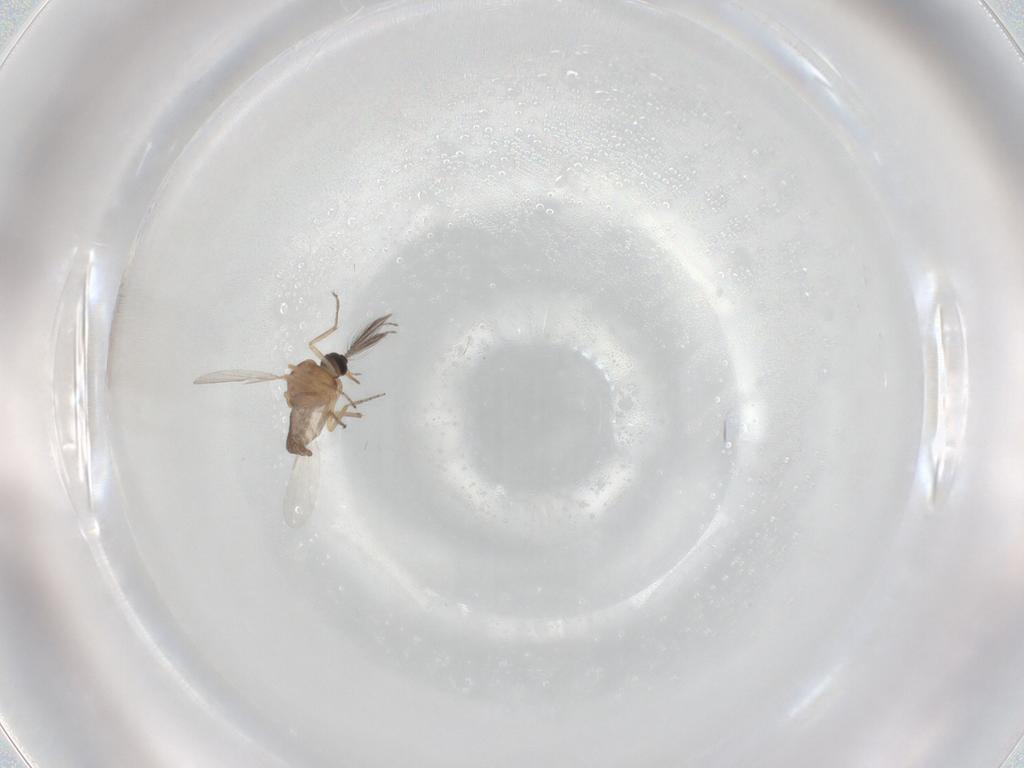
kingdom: Animalia
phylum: Arthropoda
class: Insecta
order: Diptera
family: Ceratopogonidae
